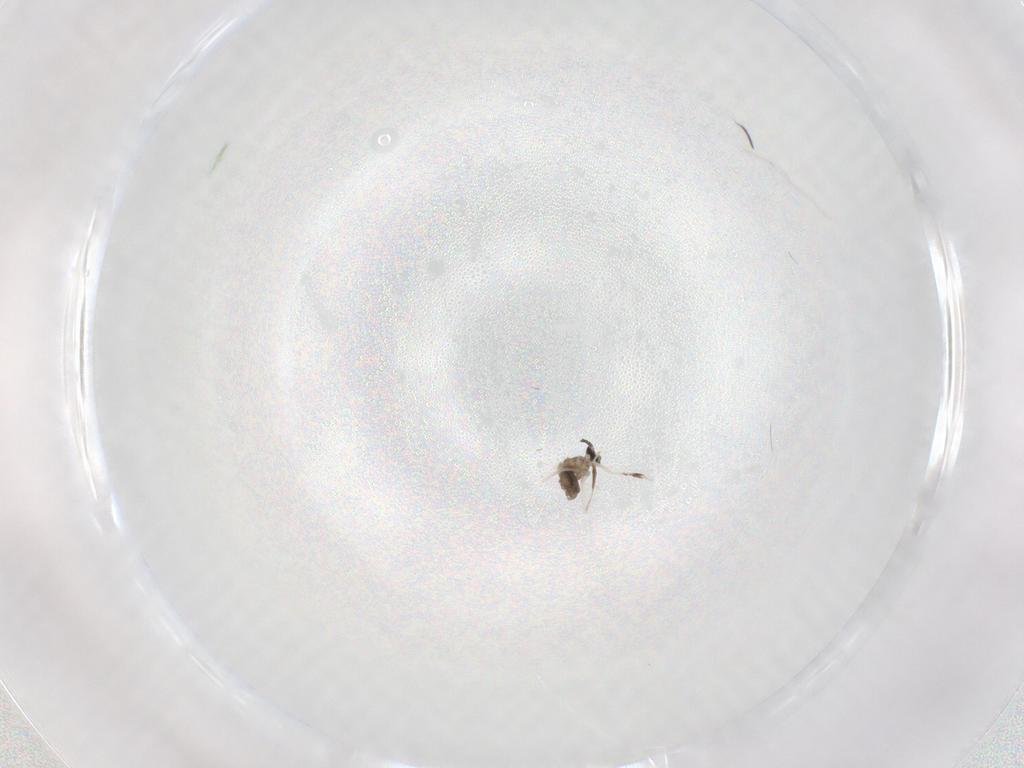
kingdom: Animalia
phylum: Arthropoda
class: Insecta
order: Diptera
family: Cecidomyiidae
